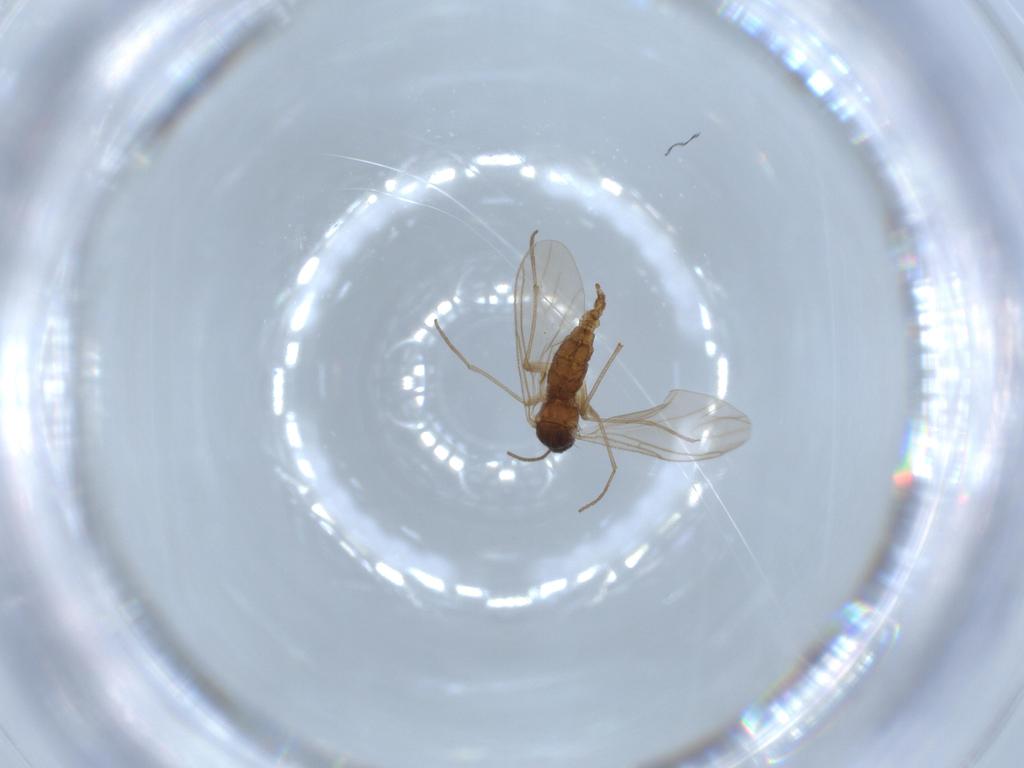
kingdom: Animalia
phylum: Arthropoda
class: Insecta
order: Diptera
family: Sciaridae
